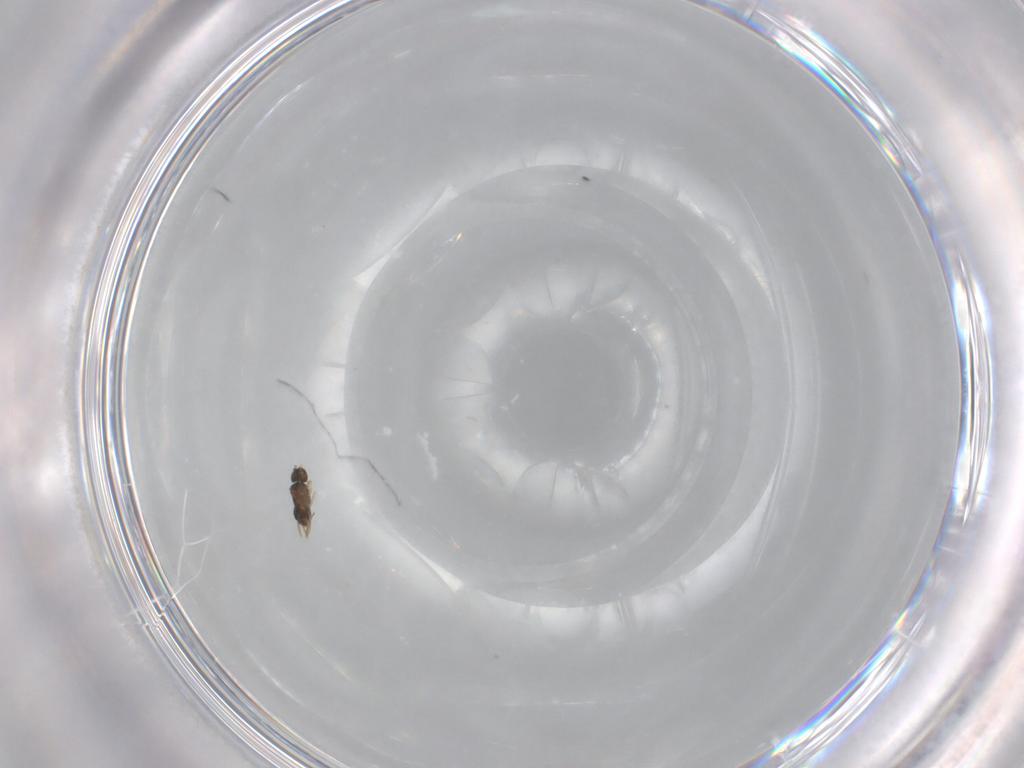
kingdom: Animalia
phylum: Arthropoda
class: Insecta
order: Hymenoptera
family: Mymaridae
